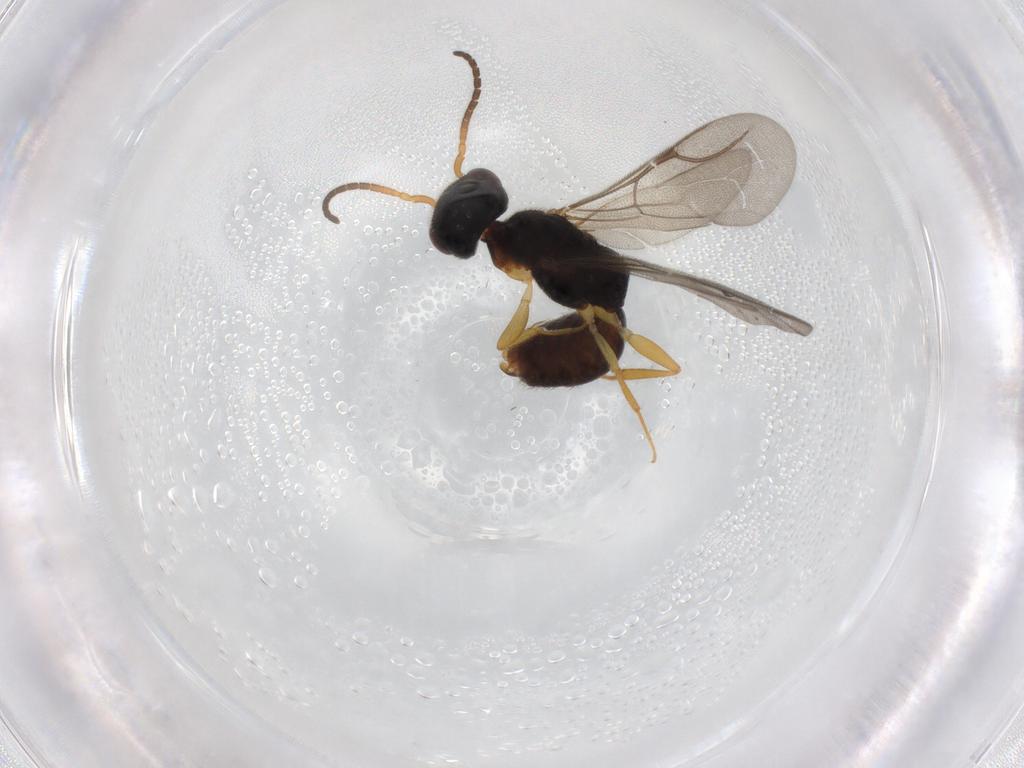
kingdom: Animalia
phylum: Arthropoda
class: Insecta
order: Hymenoptera
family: Scelionidae
